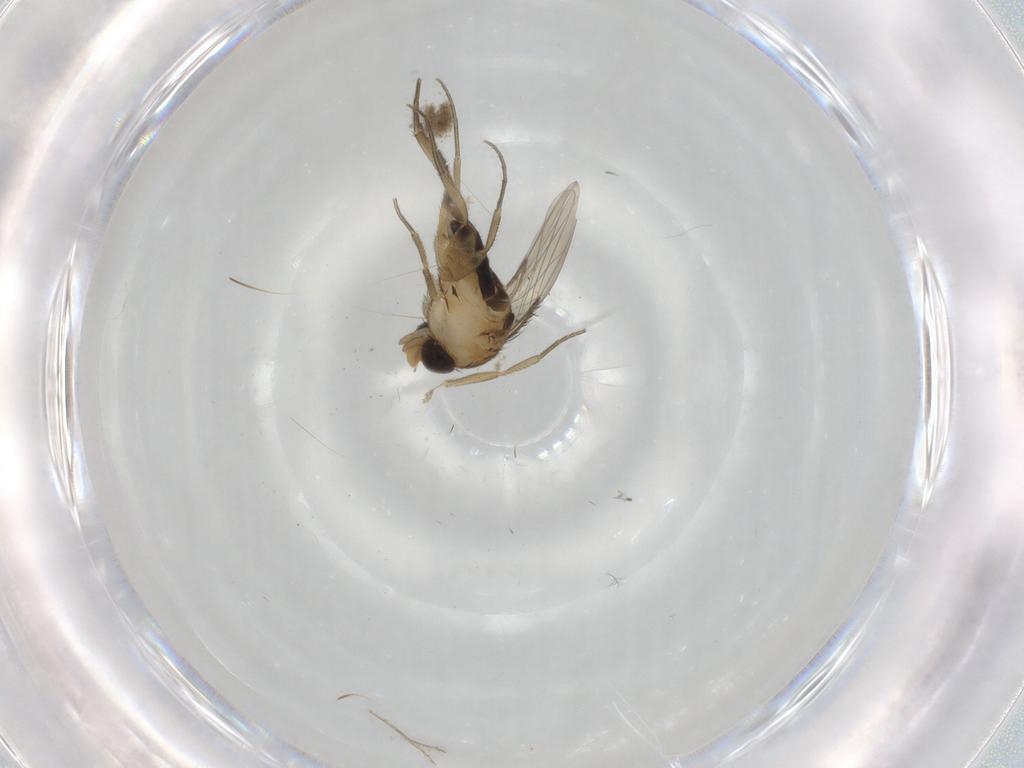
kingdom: Animalia
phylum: Arthropoda
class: Insecta
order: Diptera
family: Phoridae
